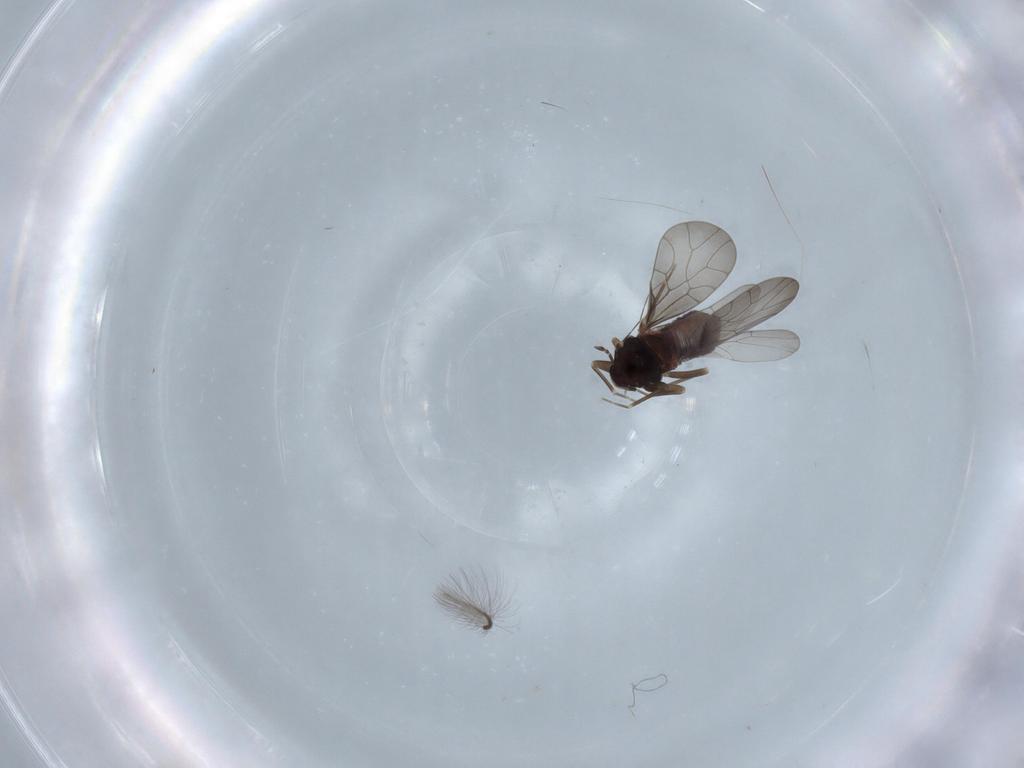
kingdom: Animalia
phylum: Arthropoda
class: Insecta
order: Psocodea
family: Lepidopsocidae
